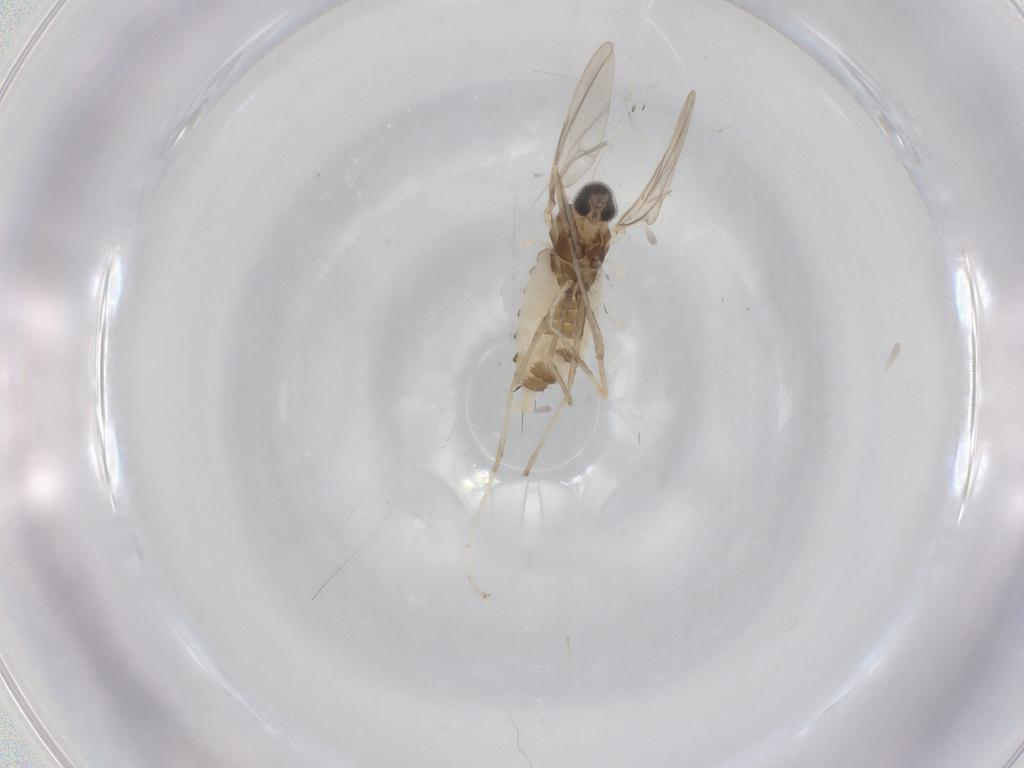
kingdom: Animalia
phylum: Arthropoda
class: Insecta
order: Diptera
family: Cecidomyiidae
